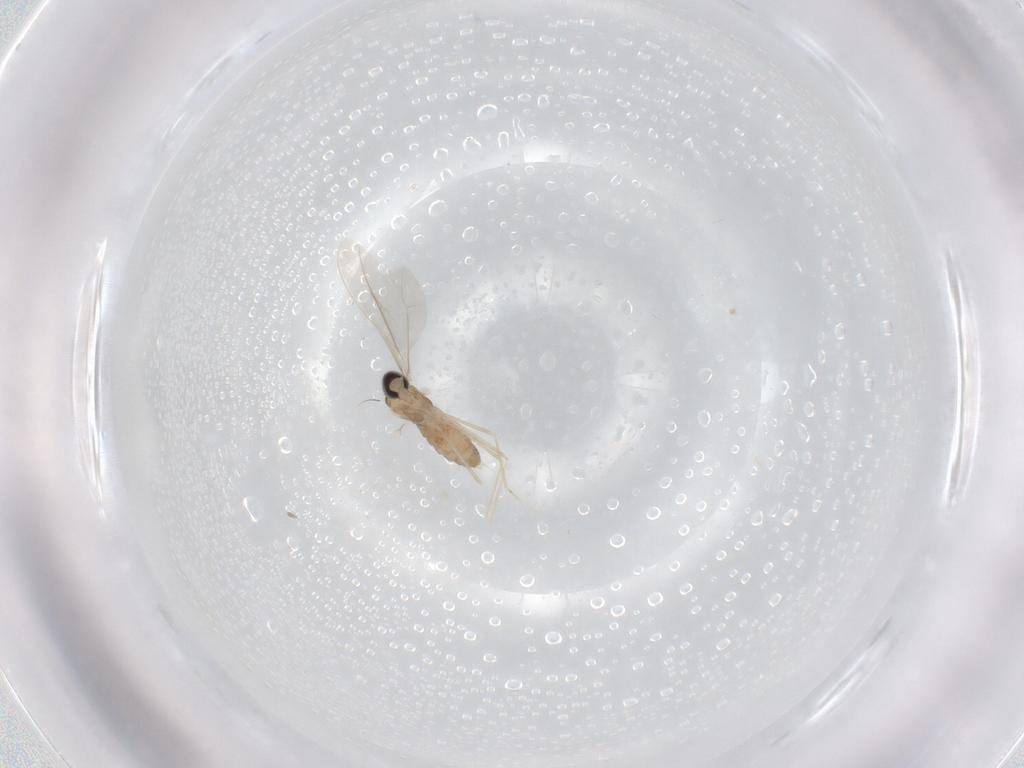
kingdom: Animalia
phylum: Arthropoda
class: Insecta
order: Diptera
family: Cecidomyiidae
